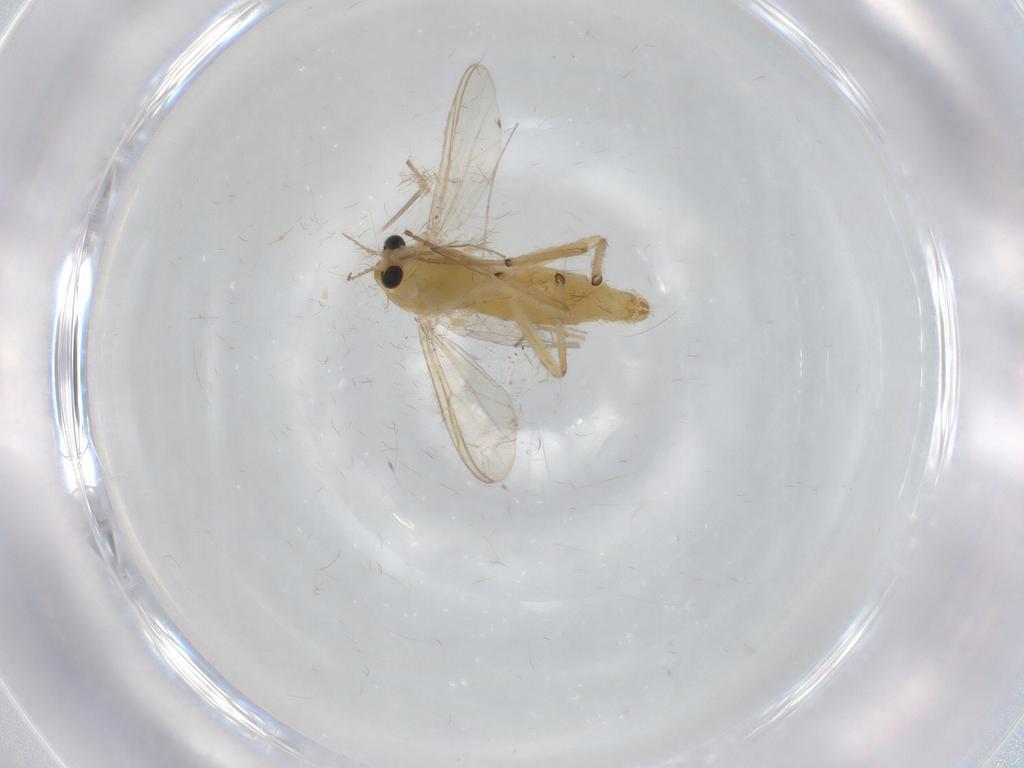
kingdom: Animalia
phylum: Arthropoda
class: Insecta
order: Diptera
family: Chironomidae
